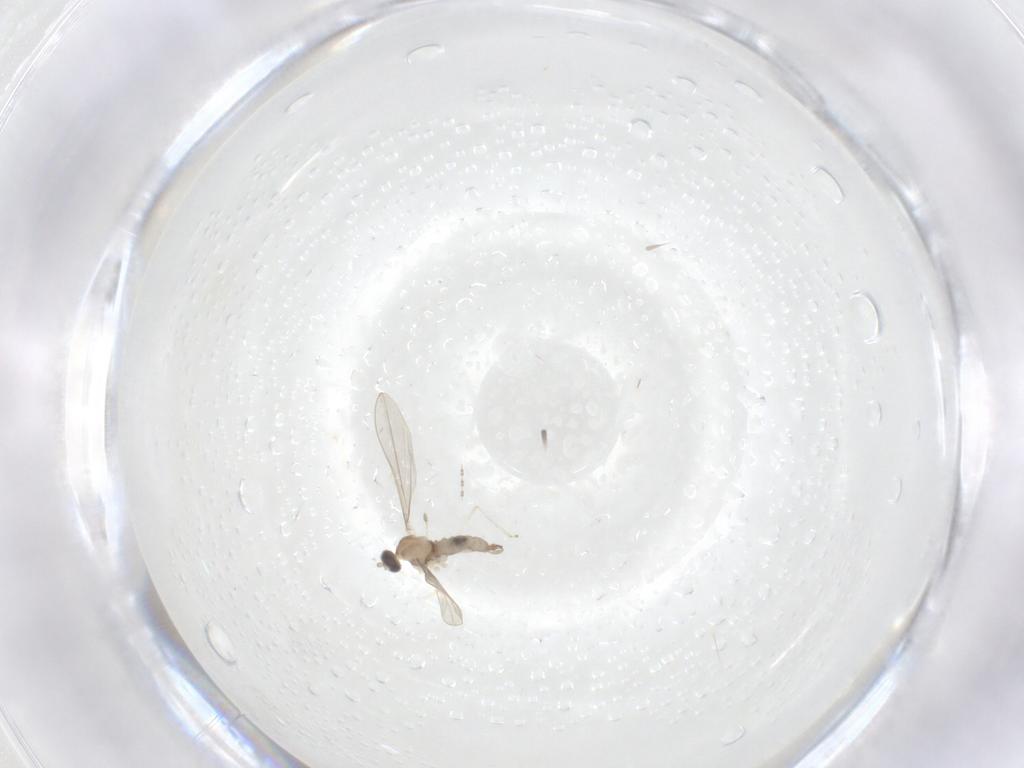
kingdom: Animalia
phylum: Arthropoda
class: Insecta
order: Diptera
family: Cecidomyiidae
